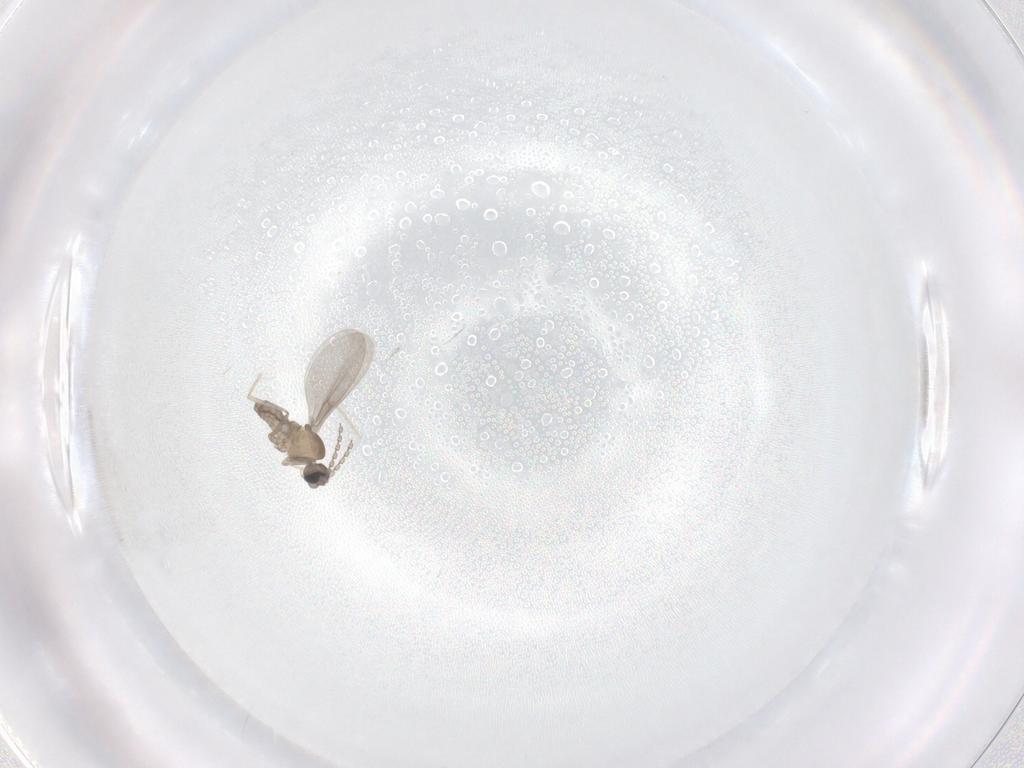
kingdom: Animalia
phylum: Arthropoda
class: Insecta
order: Diptera
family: Cecidomyiidae
